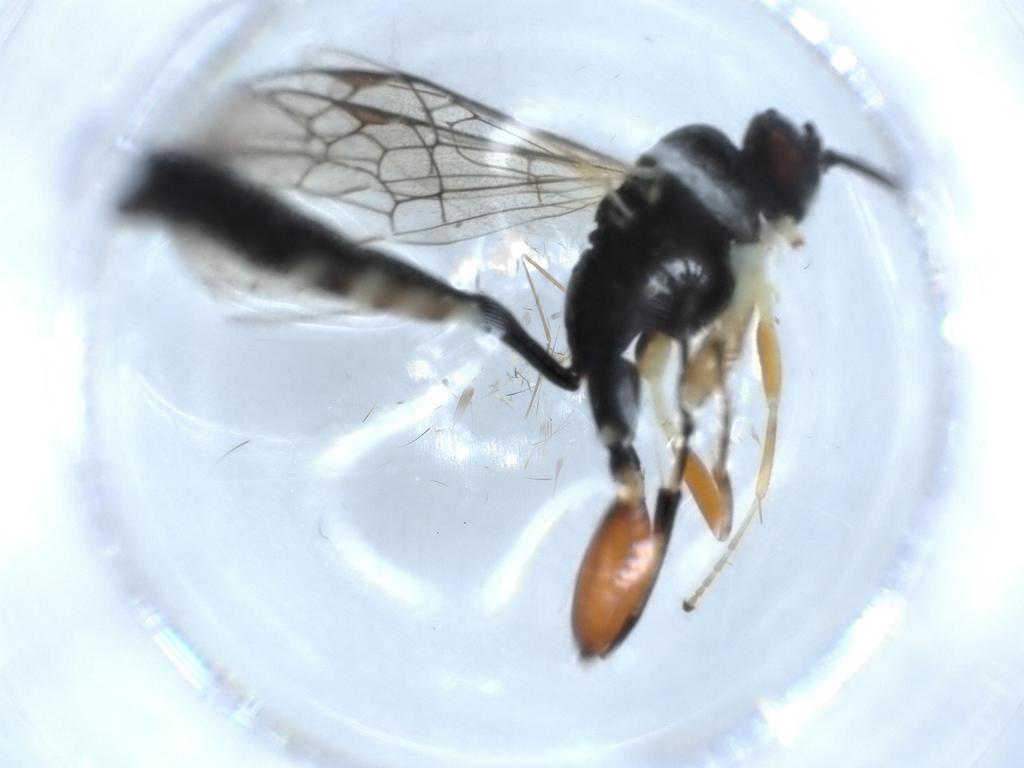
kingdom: Animalia
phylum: Arthropoda
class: Insecta
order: Hymenoptera
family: Ichneumonidae
